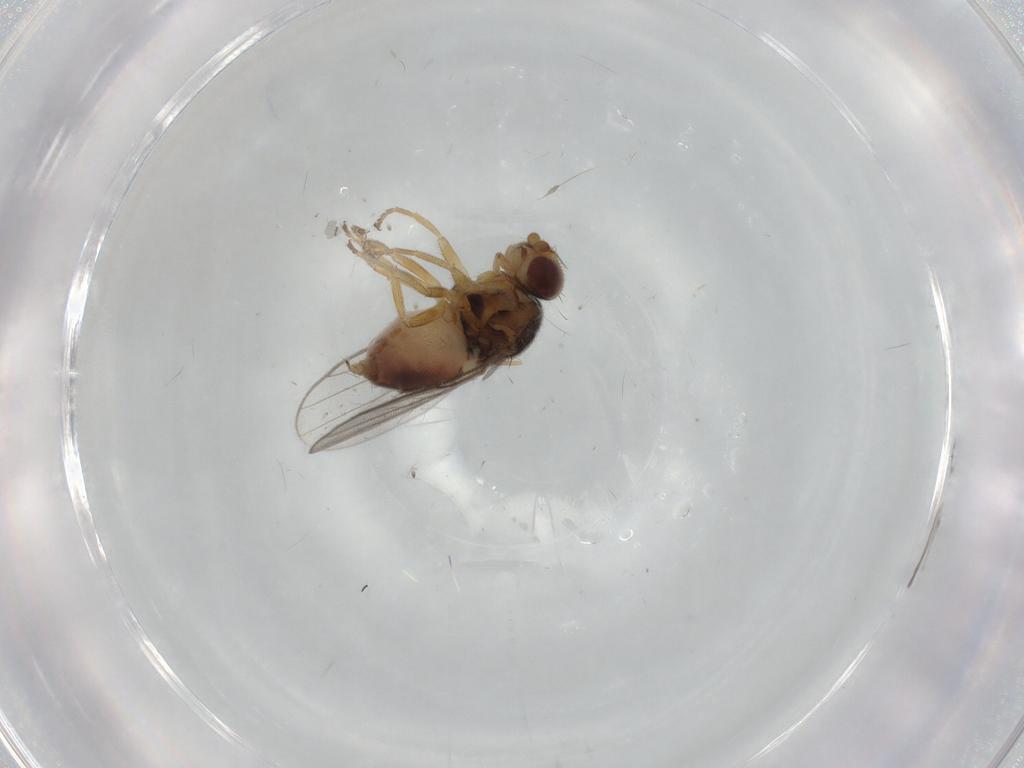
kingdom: Animalia
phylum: Arthropoda
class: Insecta
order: Diptera
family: Chloropidae
